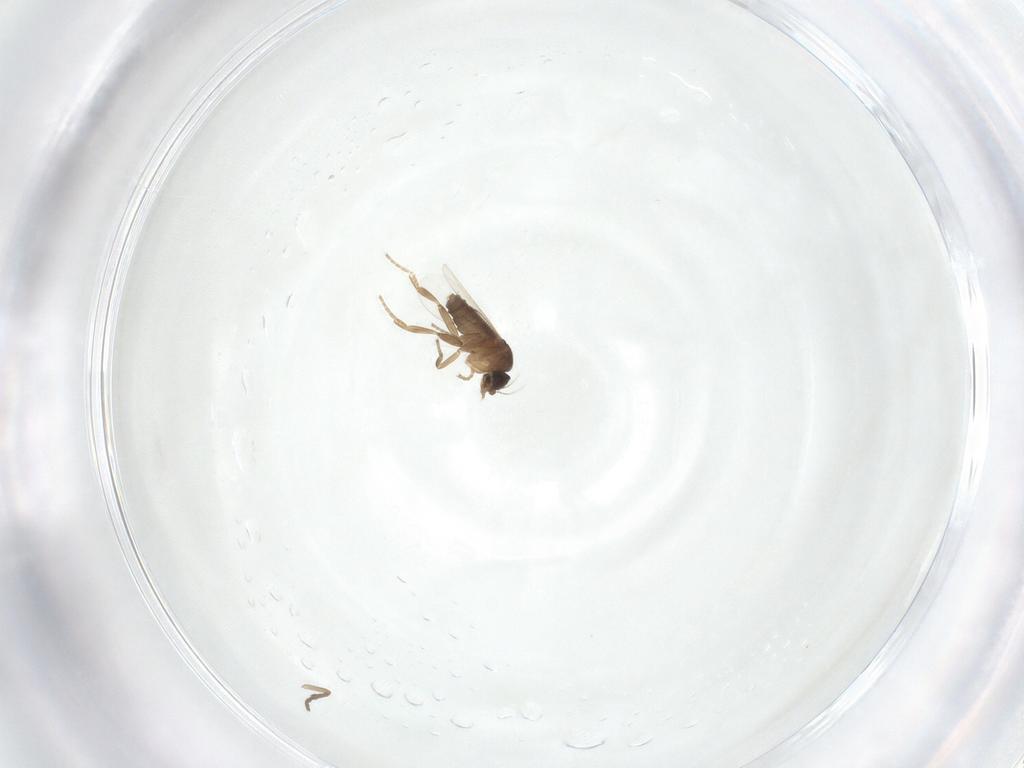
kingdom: Animalia
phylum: Arthropoda
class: Insecta
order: Diptera
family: Phoridae
